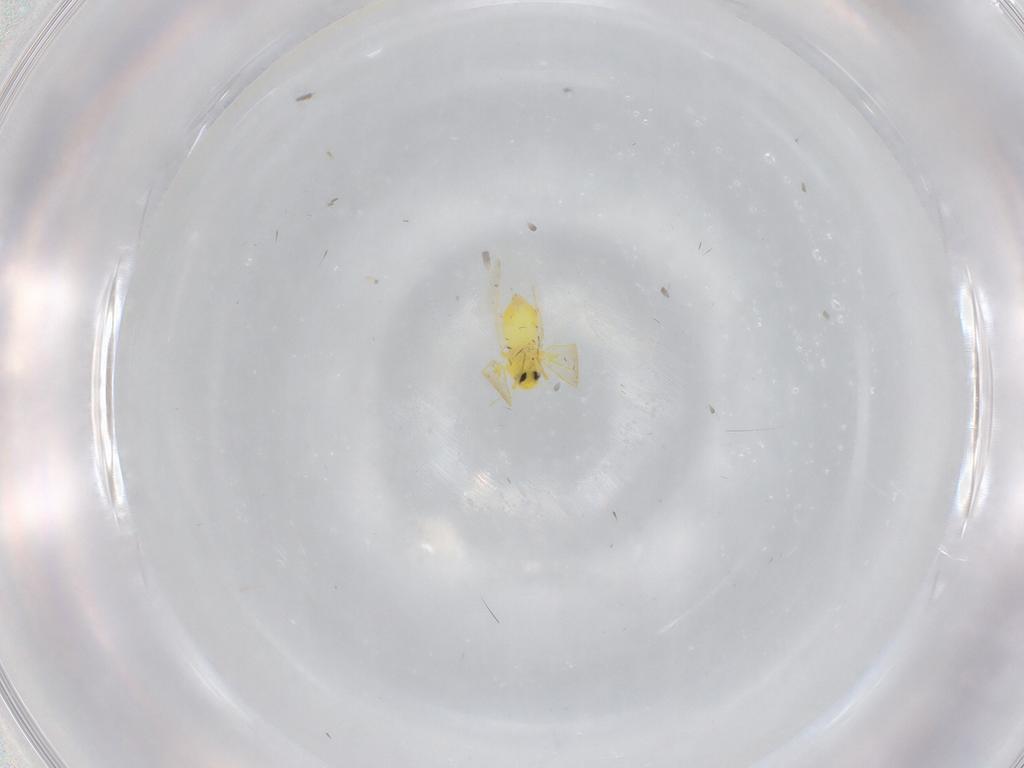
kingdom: Animalia
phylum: Arthropoda
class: Insecta
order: Hemiptera
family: Aleyrodidae
